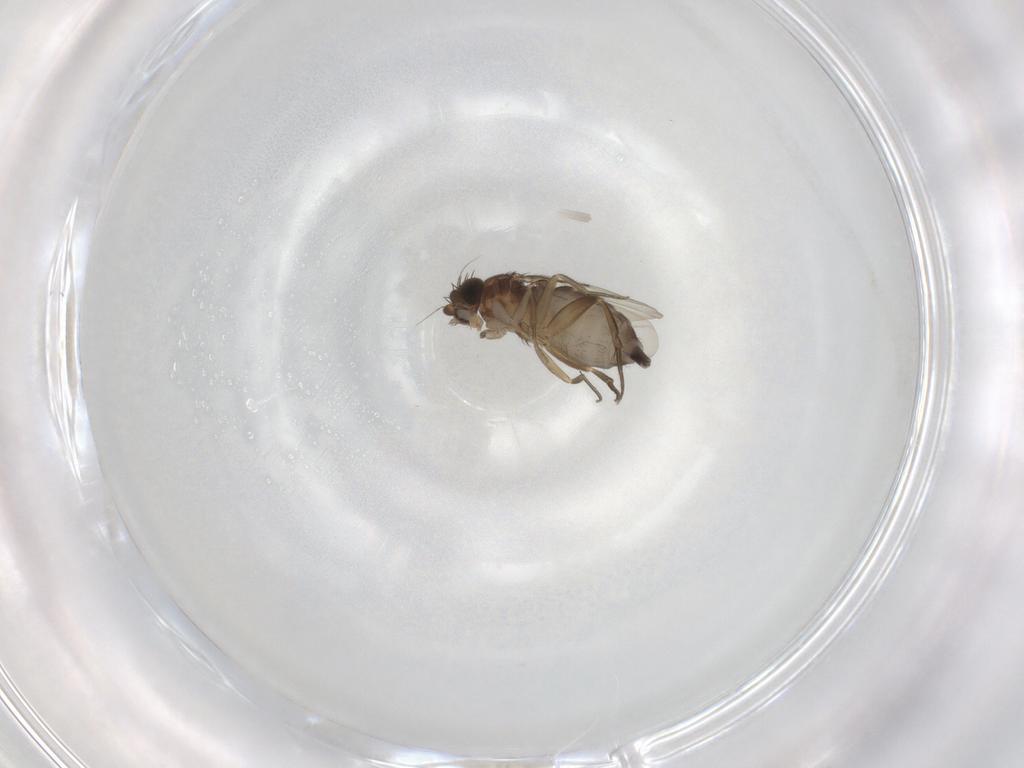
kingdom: Animalia
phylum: Arthropoda
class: Insecta
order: Diptera
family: Phoridae
